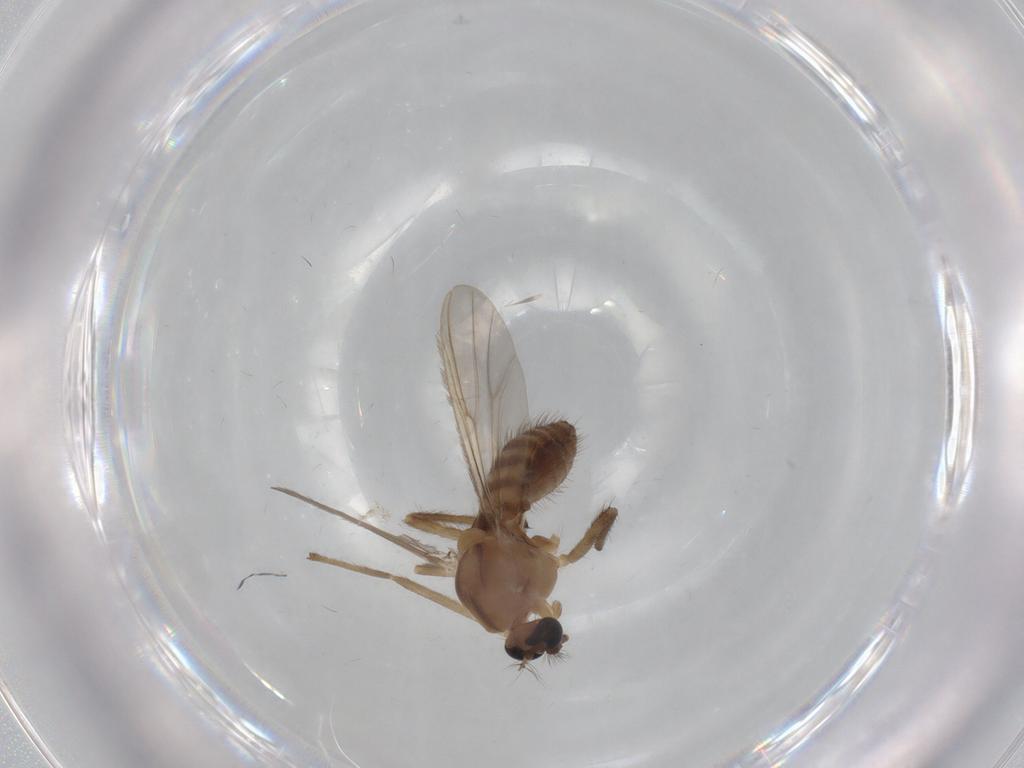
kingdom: Animalia
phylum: Arthropoda
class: Insecta
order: Diptera
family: Chironomidae
